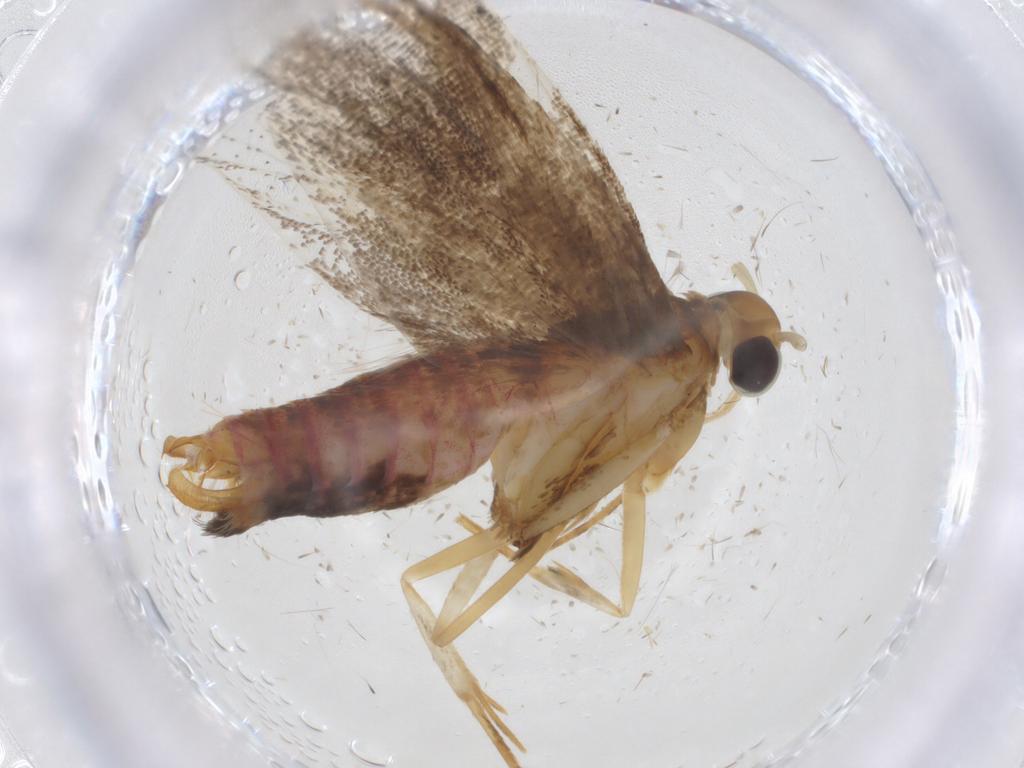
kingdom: Animalia
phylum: Arthropoda
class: Insecta
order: Lepidoptera
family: Lecithoceridae
